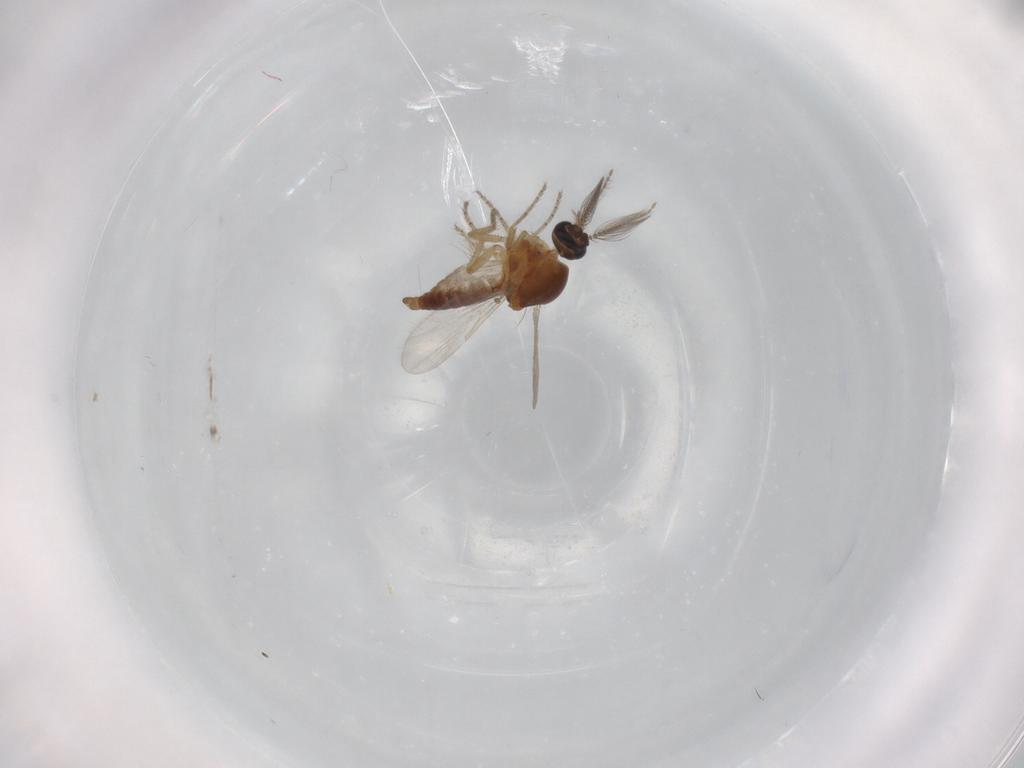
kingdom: Animalia
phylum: Arthropoda
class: Insecta
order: Diptera
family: Ceratopogonidae
